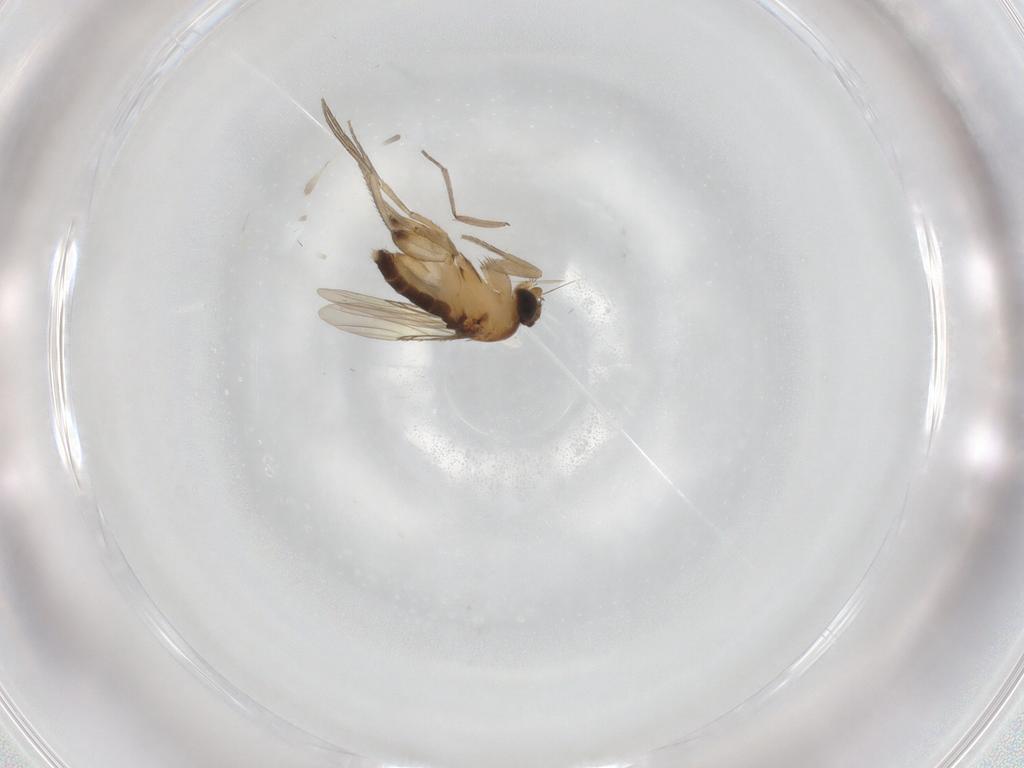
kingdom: Animalia
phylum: Arthropoda
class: Insecta
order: Diptera
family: Phoridae
